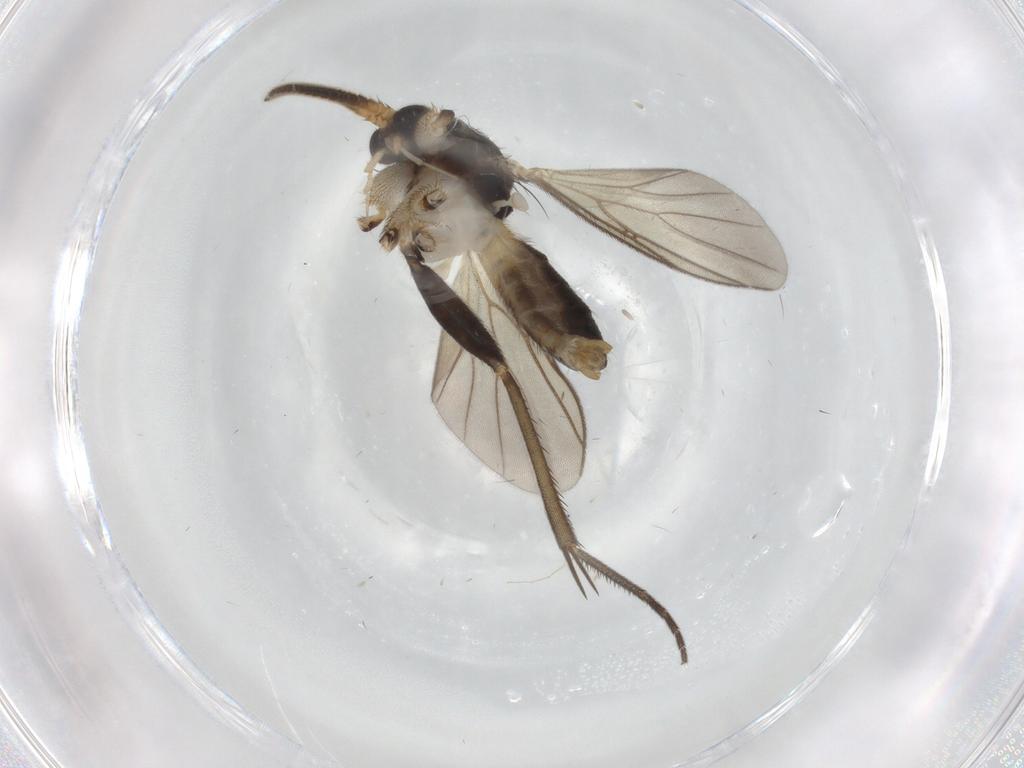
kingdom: Animalia
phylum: Arthropoda
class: Insecta
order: Diptera
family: Mycetophilidae
